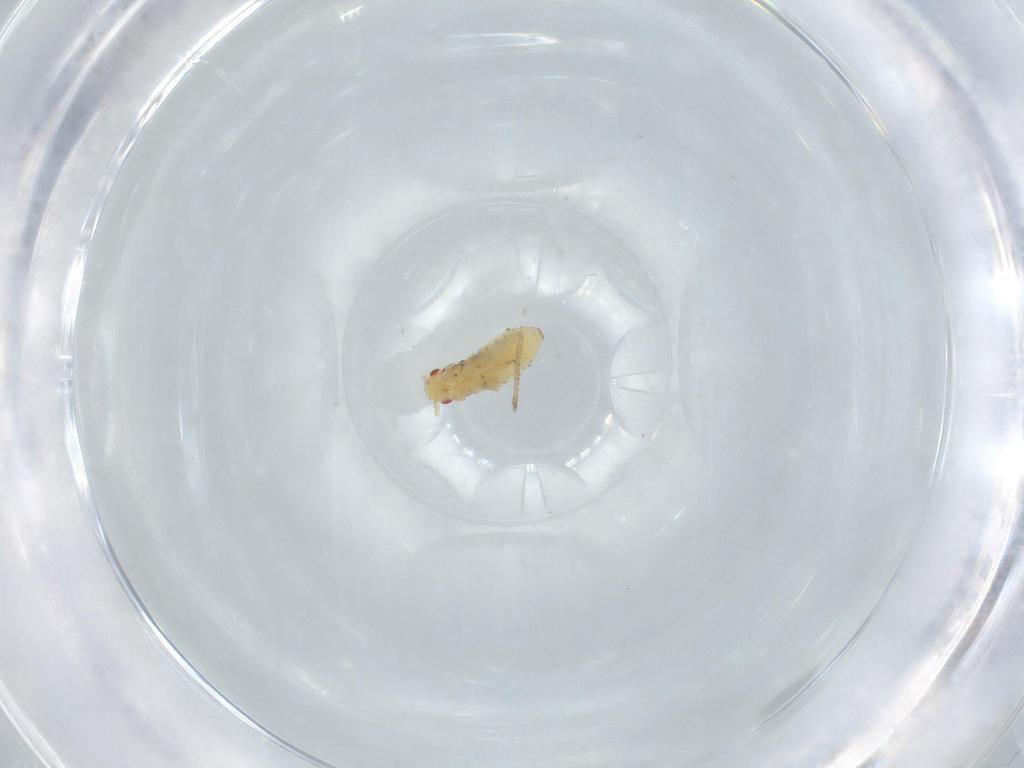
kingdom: Animalia
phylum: Arthropoda
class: Insecta
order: Hemiptera
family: Aphididae
